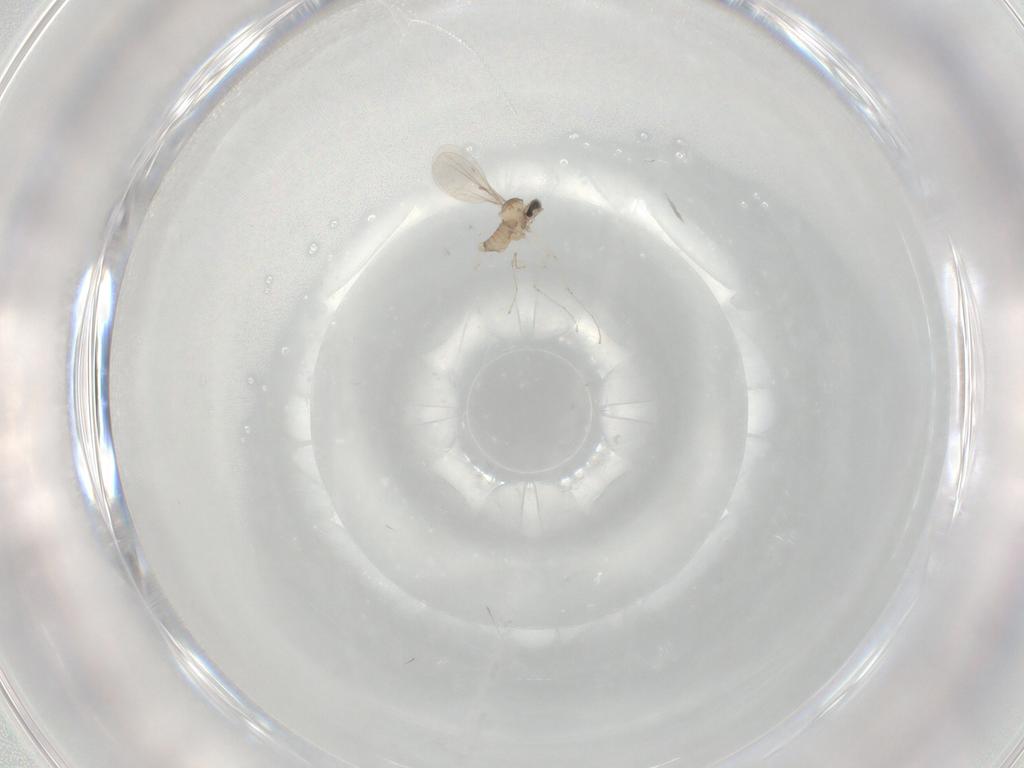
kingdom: Animalia
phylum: Arthropoda
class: Insecta
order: Diptera
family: Cecidomyiidae
